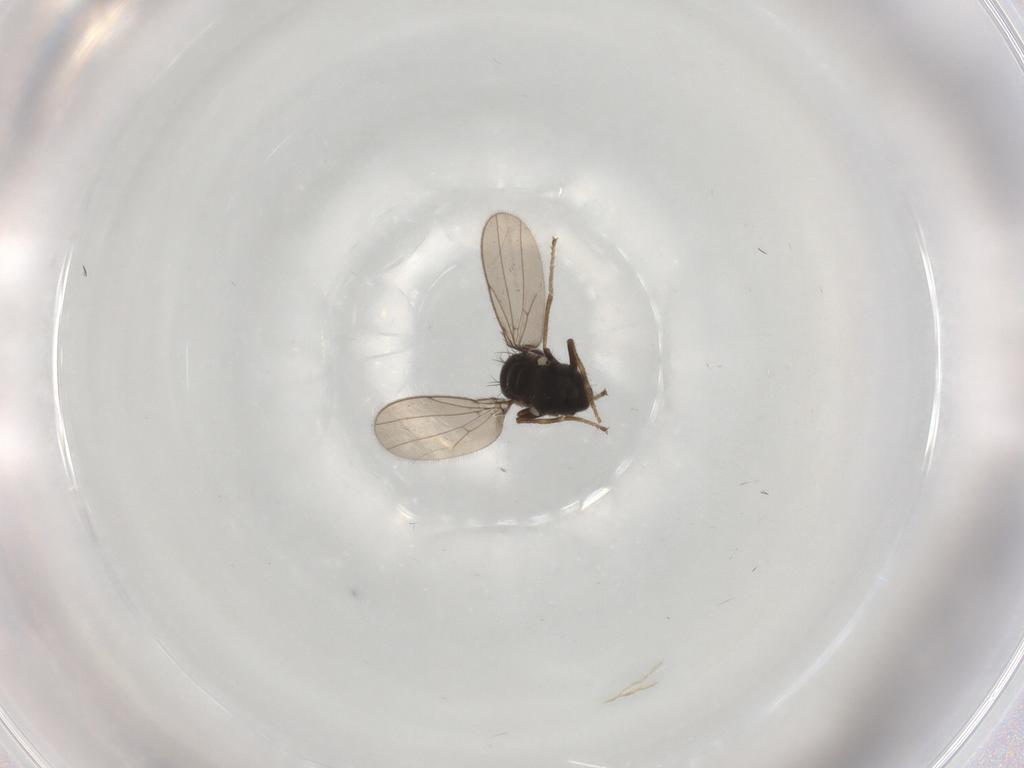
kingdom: Animalia
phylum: Arthropoda
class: Insecta
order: Diptera
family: Ephydridae
